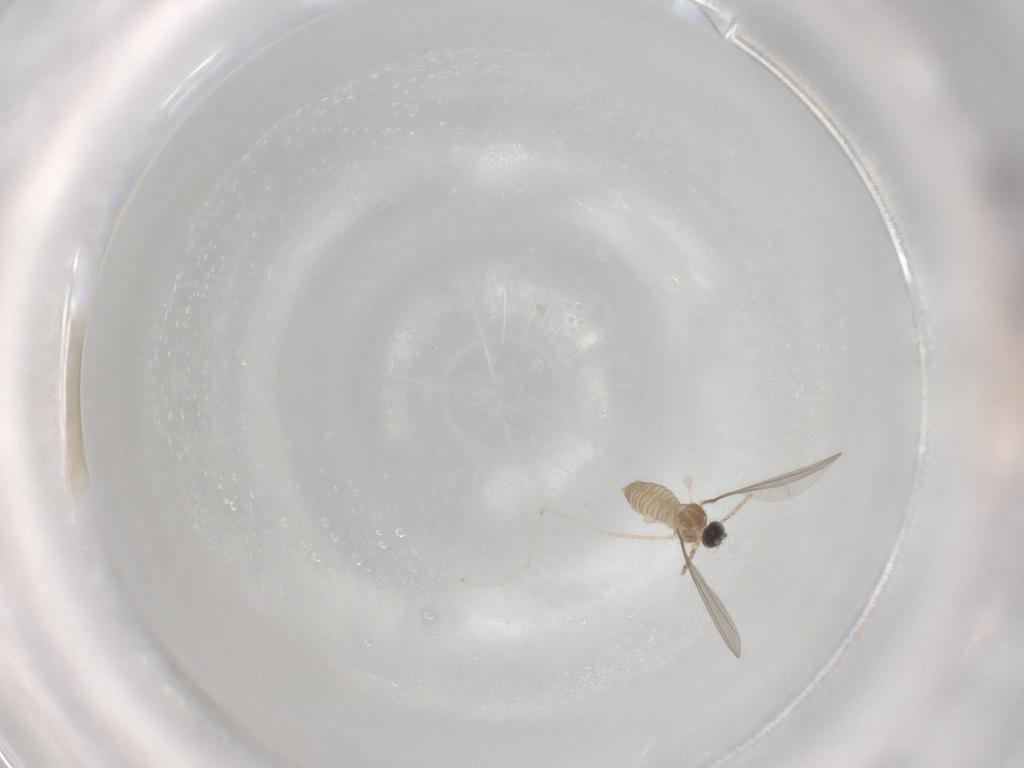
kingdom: Animalia
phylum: Arthropoda
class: Insecta
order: Diptera
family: Cecidomyiidae
